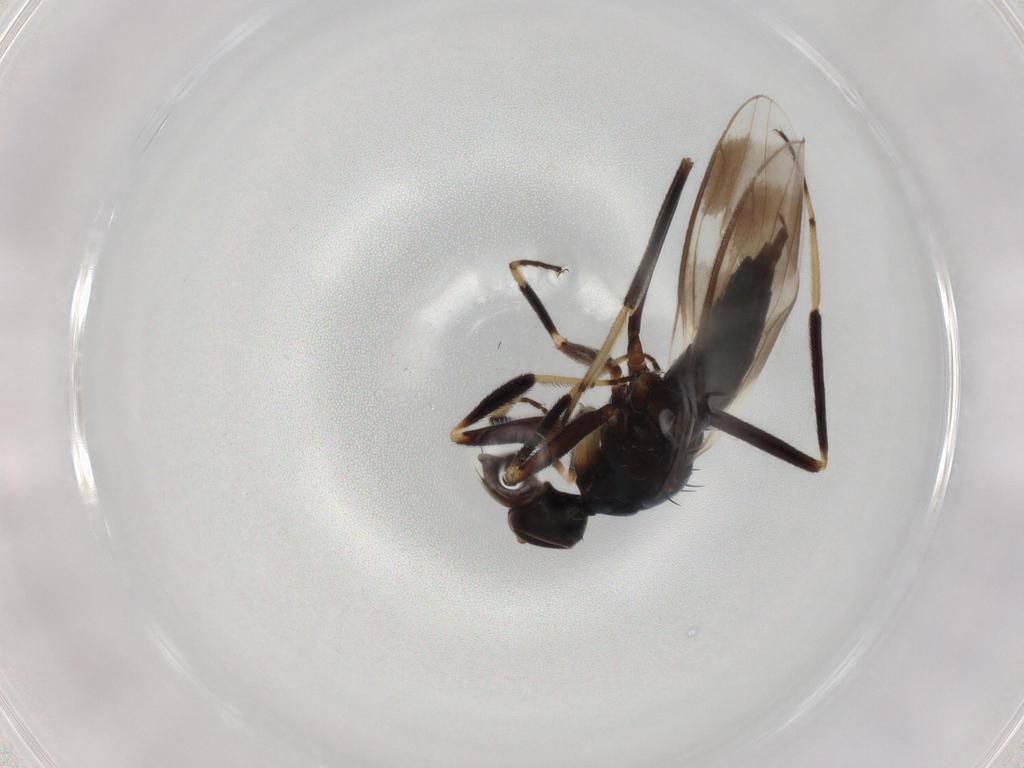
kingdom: Animalia
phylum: Arthropoda
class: Insecta
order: Diptera
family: Hybotidae
